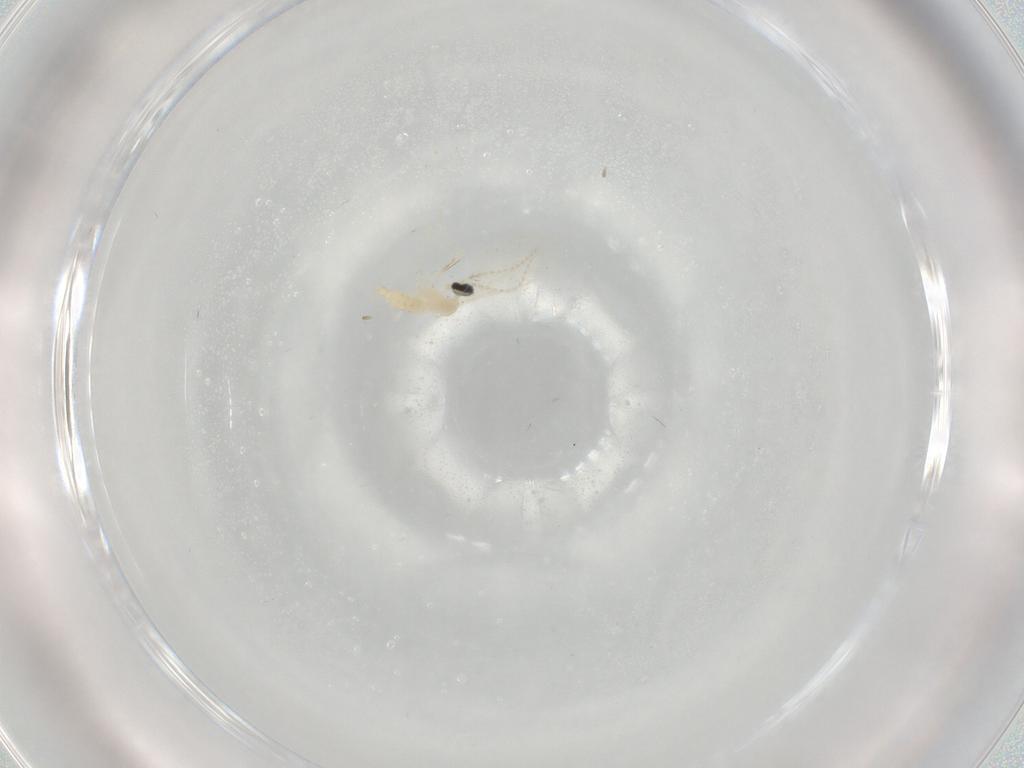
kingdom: Animalia
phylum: Arthropoda
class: Insecta
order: Diptera
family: Cecidomyiidae
